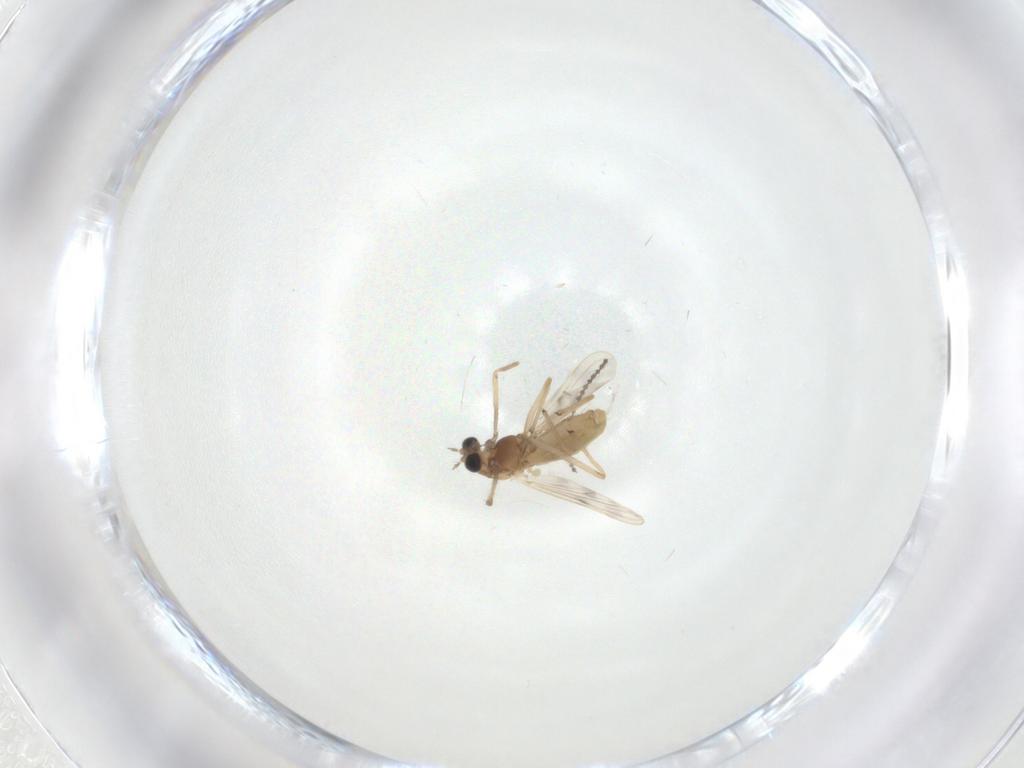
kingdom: Animalia
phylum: Arthropoda
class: Insecta
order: Diptera
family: Chironomidae
